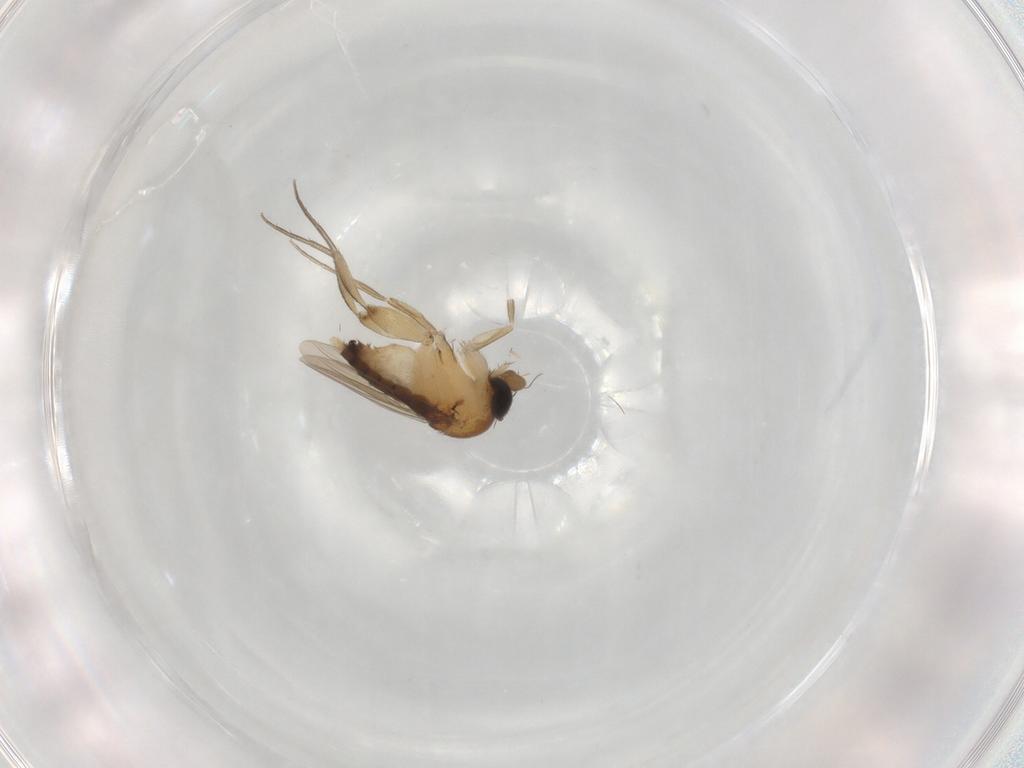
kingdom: Animalia
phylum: Arthropoda
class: Insecta
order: Diptera
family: Phoridae
